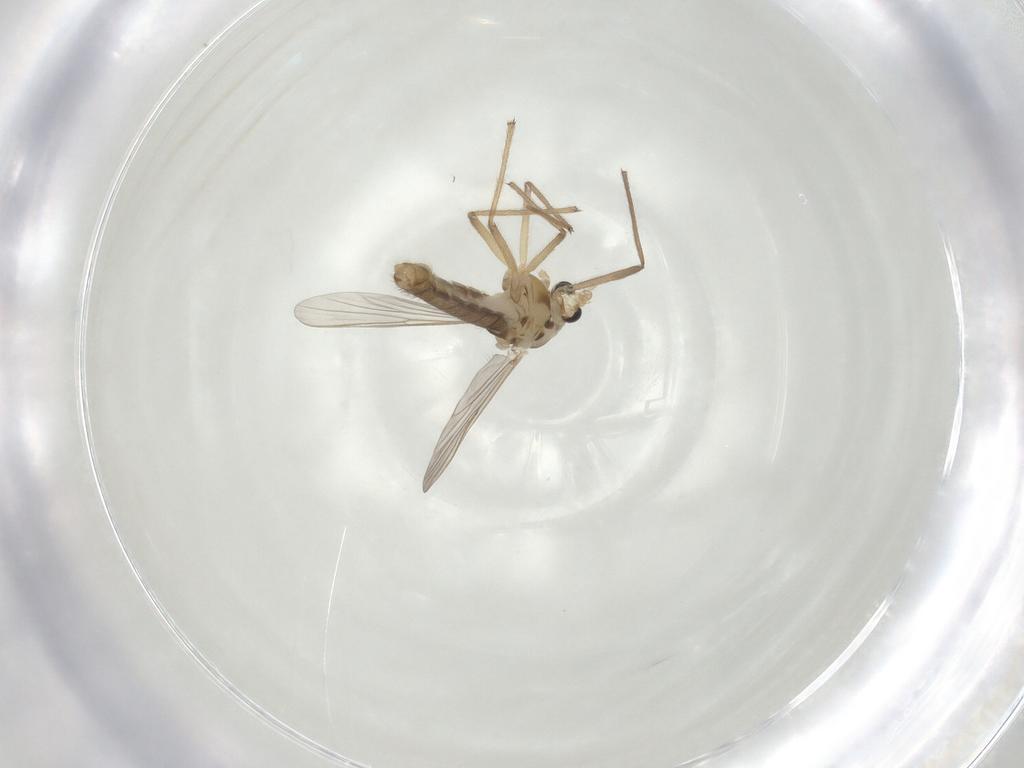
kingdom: Animalia
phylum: Arthropoda
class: Insecta
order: Diptera
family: Chironomidae
